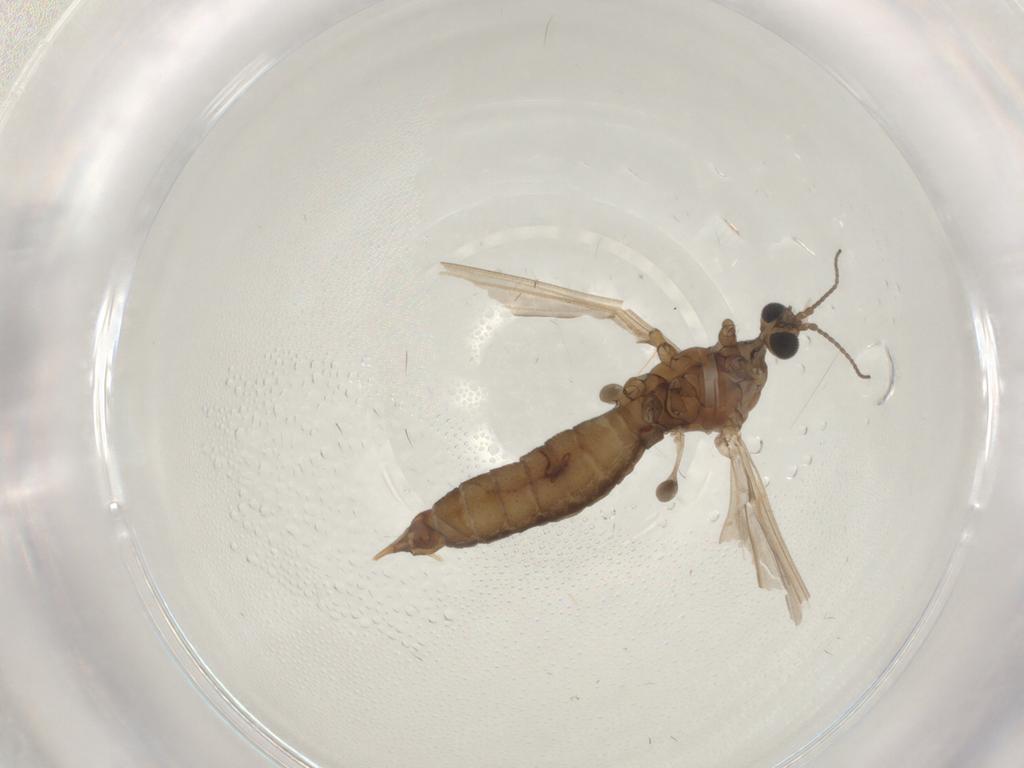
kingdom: Animalia
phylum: Arthropoda
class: Insecta
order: Diptera
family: Limoniidae
